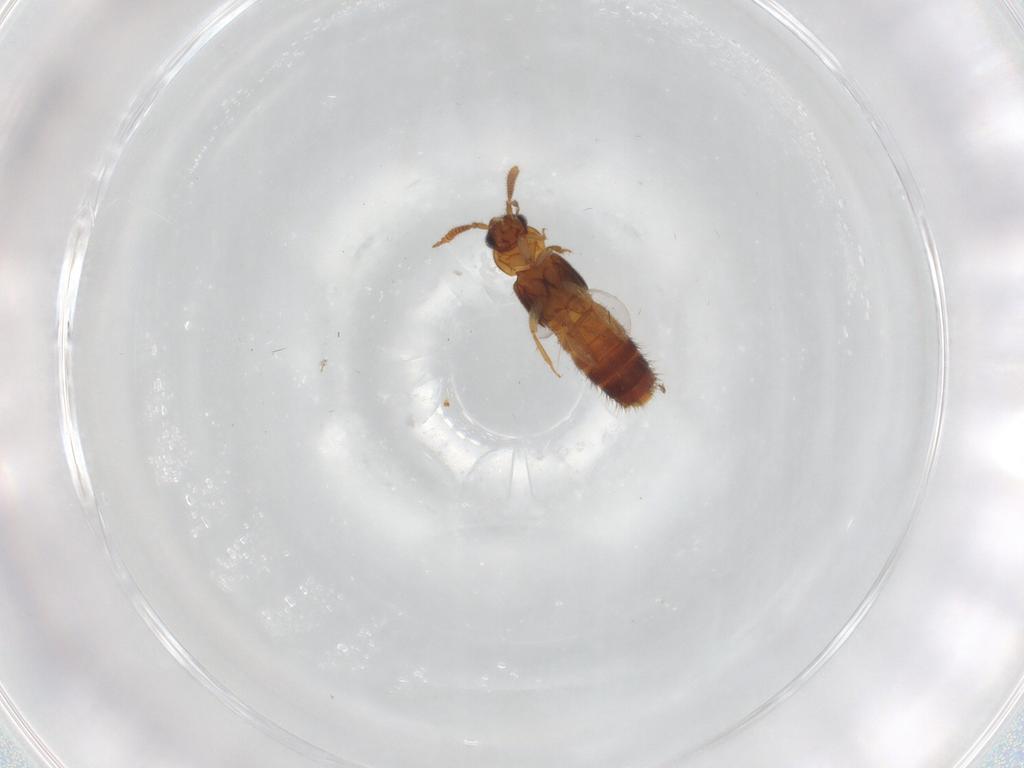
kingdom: Animalia
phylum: Arthropoda
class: Insecta
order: Coleoptera
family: Staphylinidae
